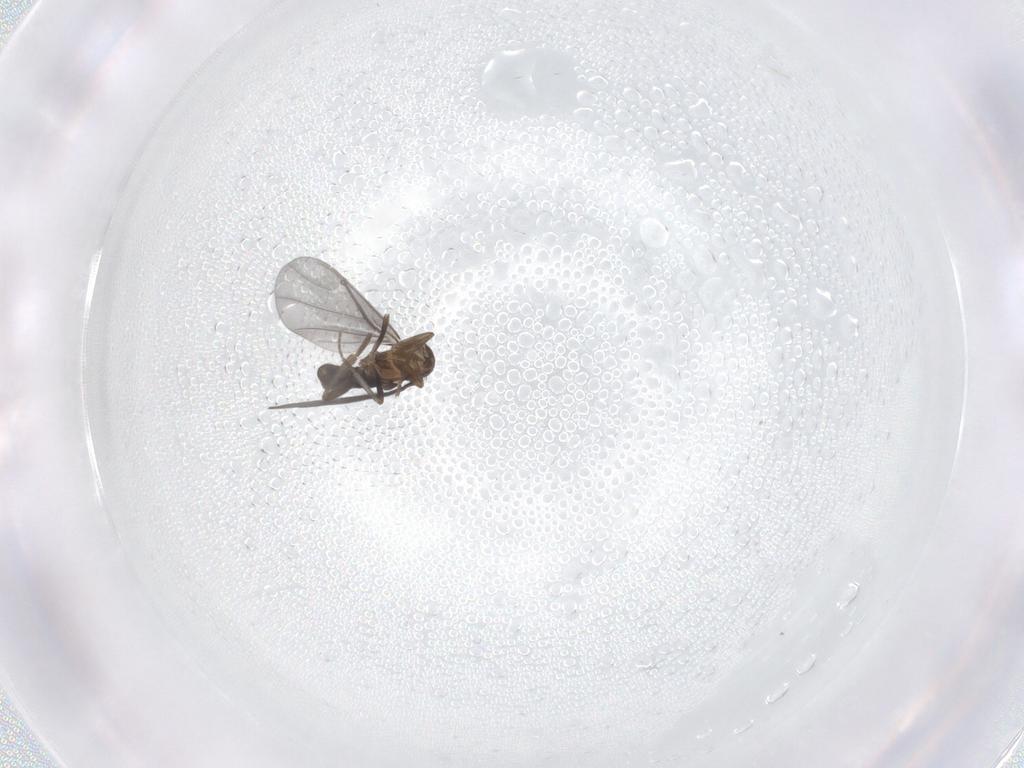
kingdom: Animalia
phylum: Arthropoda
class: Insecta
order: Diptera
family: Phoridae
